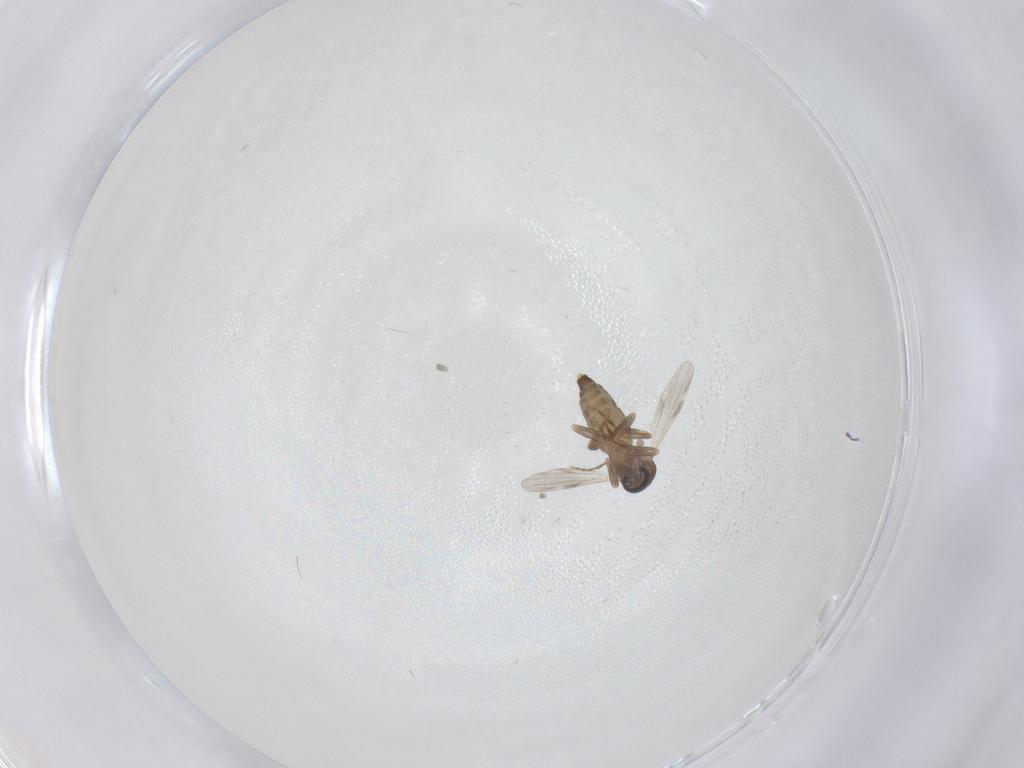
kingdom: Animalia
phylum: Arthropoda
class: Insecta
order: Diptera
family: Ceratopogonidae
